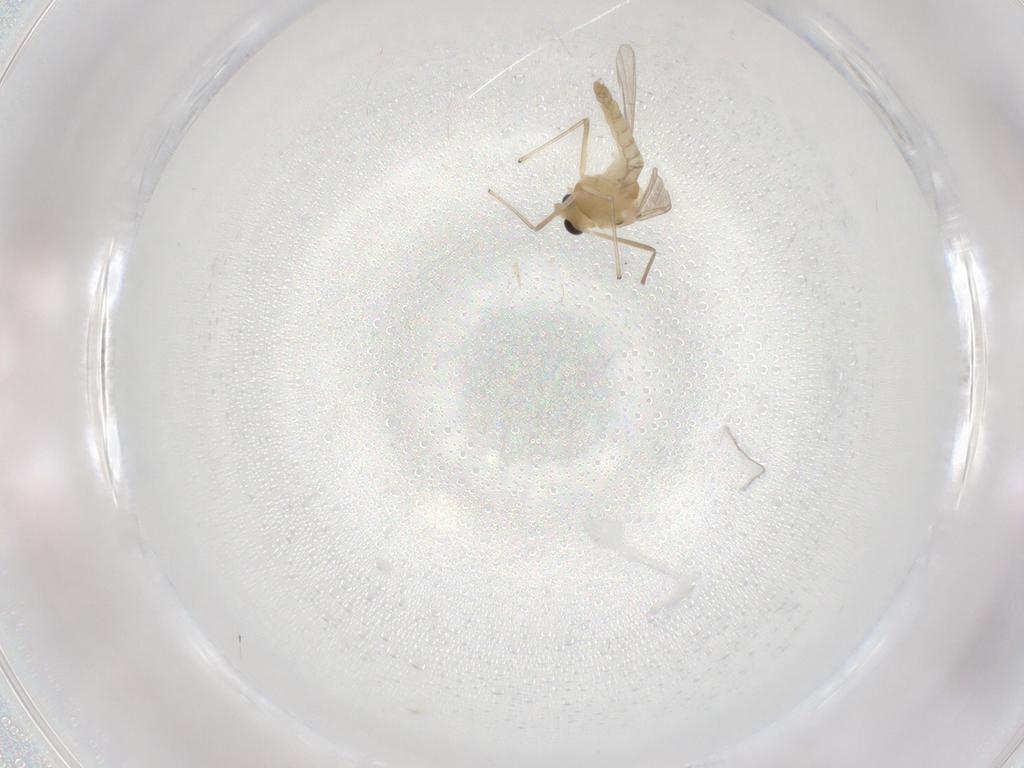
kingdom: Animalia
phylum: Arthropoda
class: Insecta
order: Diptera
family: Chironomidae
